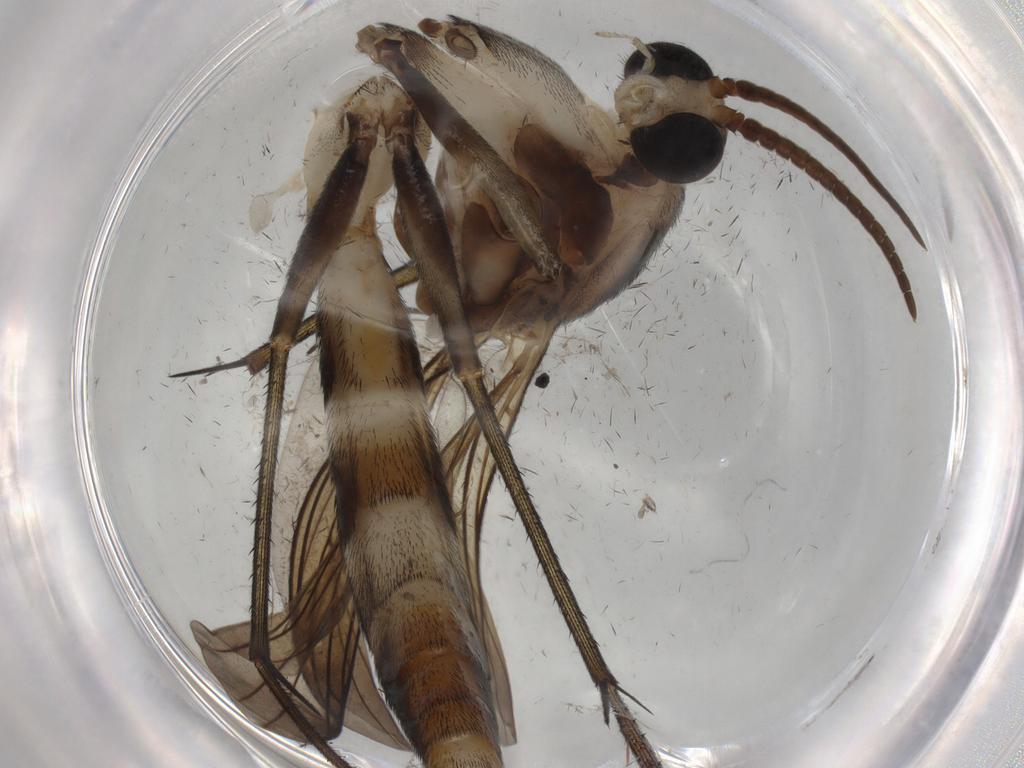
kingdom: Animalia
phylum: Arthropoda
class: Insecta
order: Diptera
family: Keroplatidae
